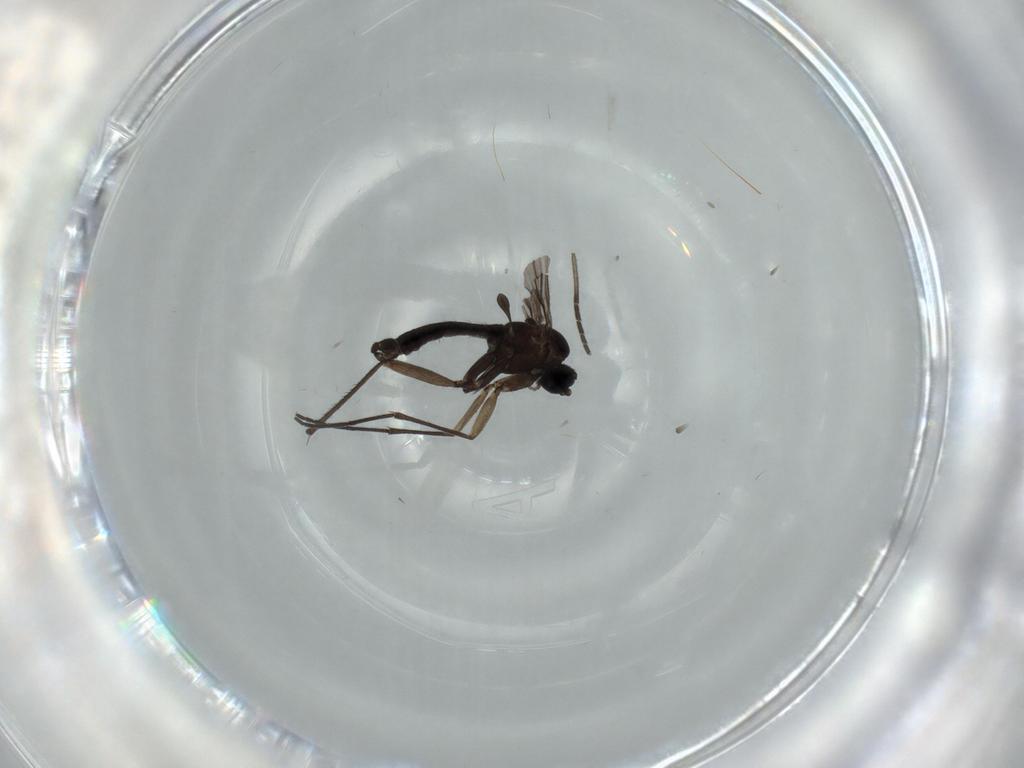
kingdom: Animalia
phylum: Arthropoda
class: Insecta
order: Diptera
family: Sciaridae
